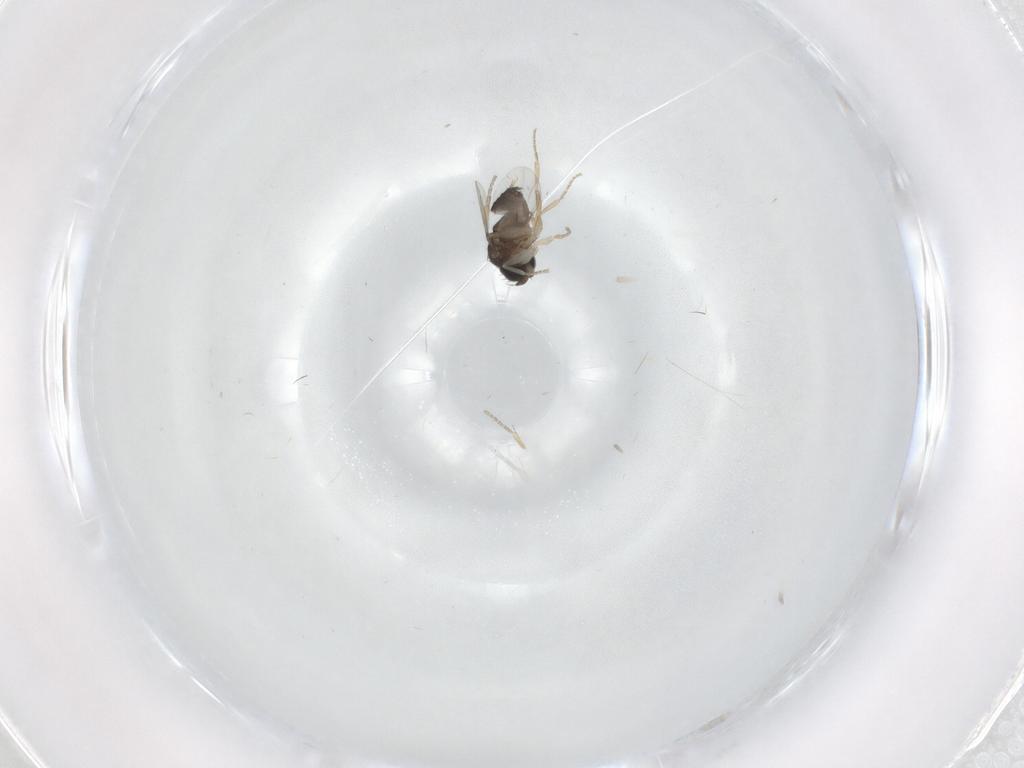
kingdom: Animalia
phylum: Arthropoda
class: Insecta
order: Diptera
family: Phoridae
